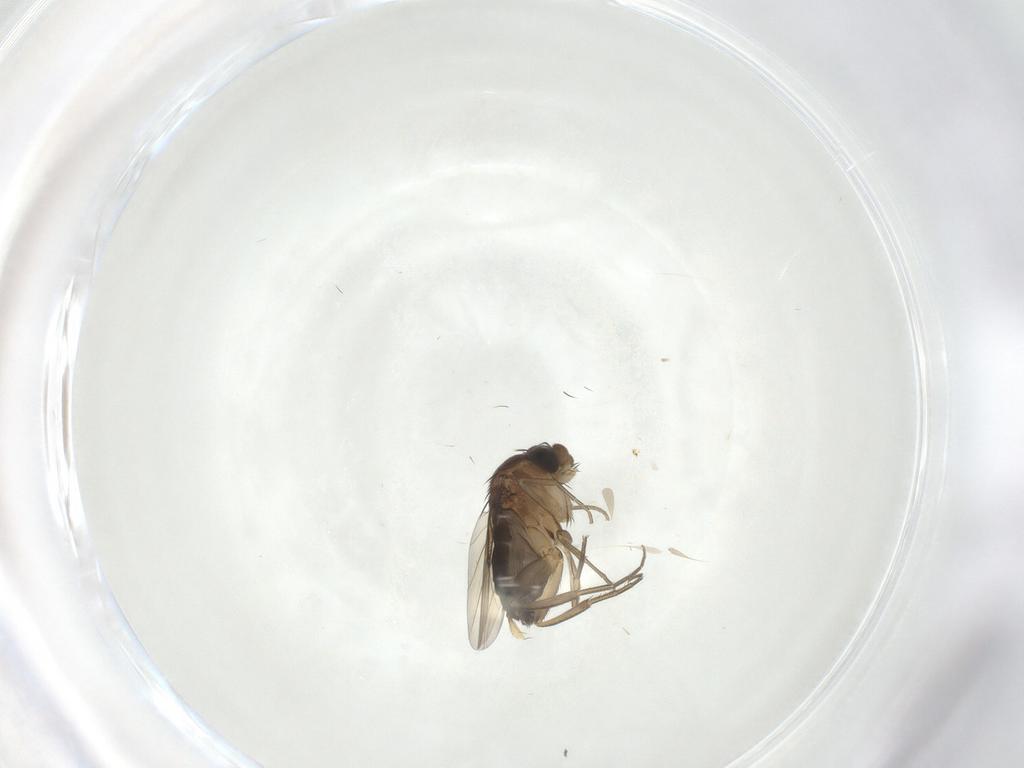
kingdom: Animalia
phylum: Arthropoda
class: Insecta
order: Diptera
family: Phoridae
